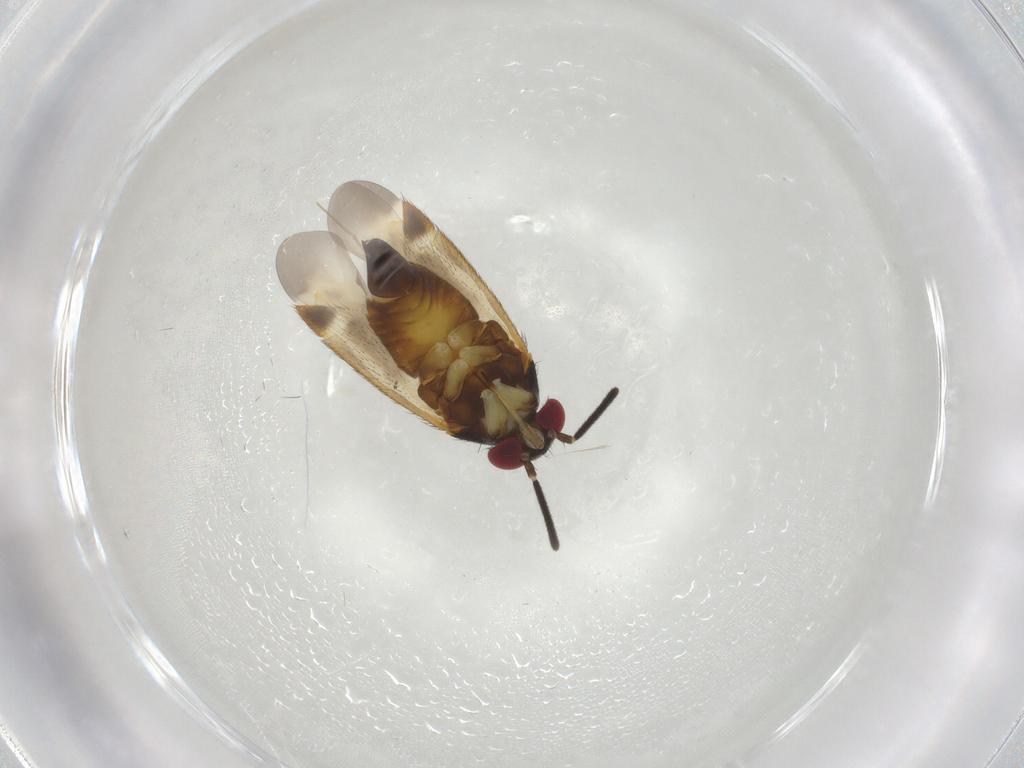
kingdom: Animalia
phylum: Arthropoda
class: Insecta
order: Hemiptera
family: Miridae
